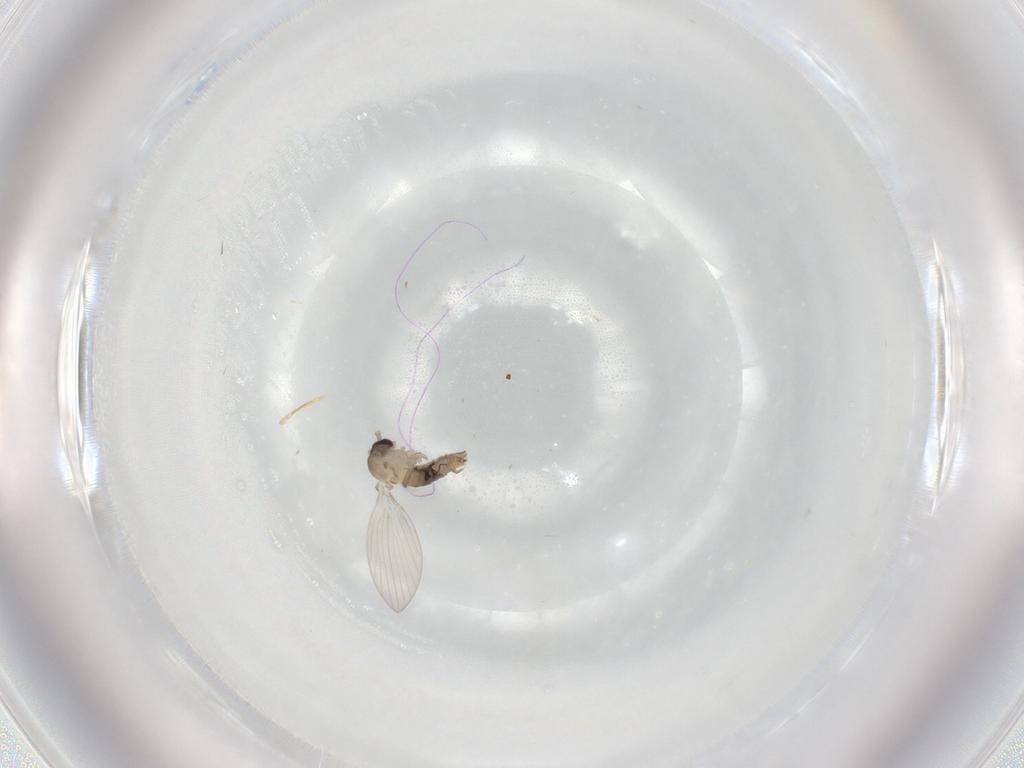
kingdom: Animalia
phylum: Arthropoda
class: Insecta
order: Diptera
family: Psychodidae
